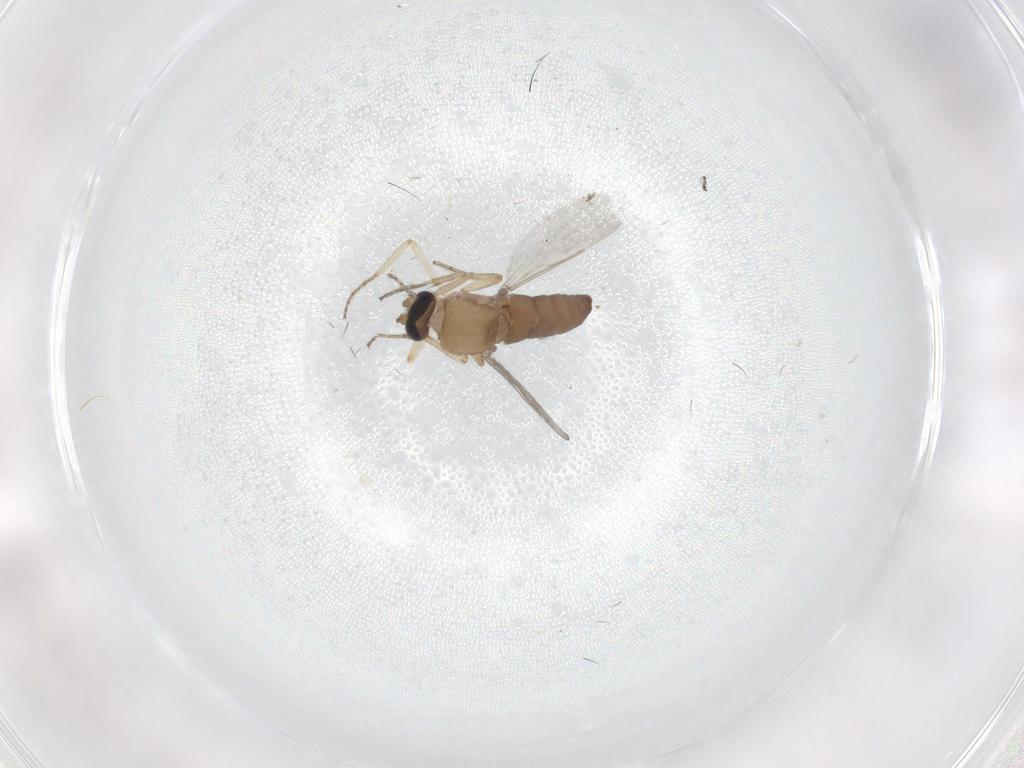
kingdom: Animalia
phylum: Arthropoda
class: Insecta
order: Diptera
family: Ceratopogonidae
